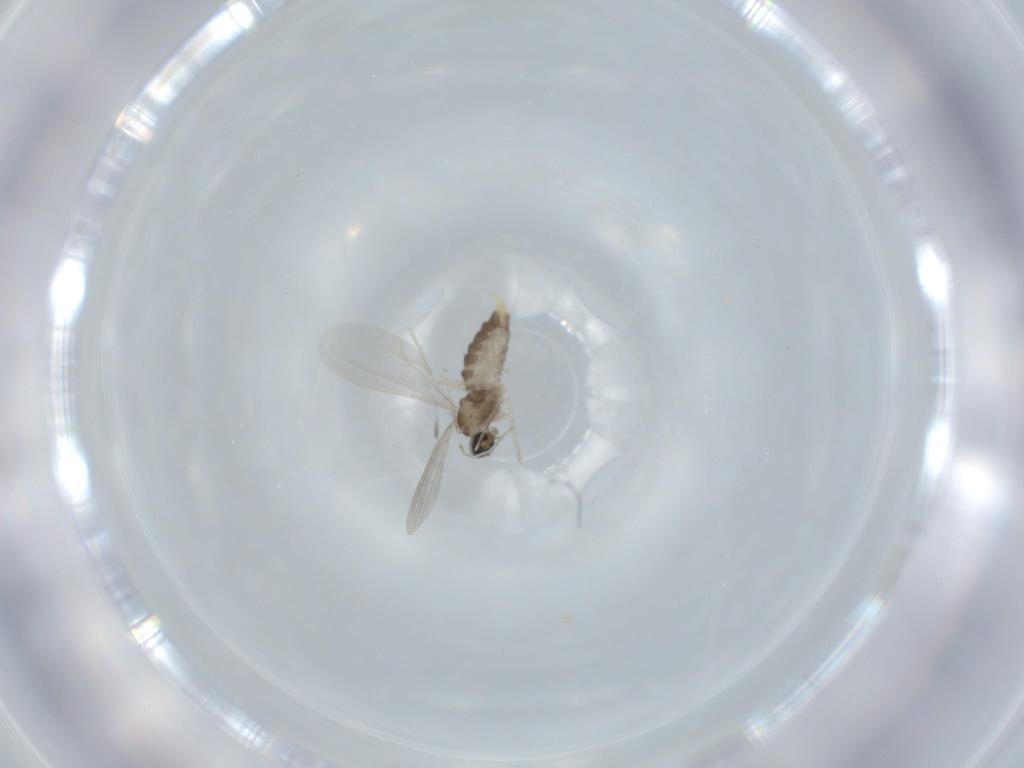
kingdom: Animalia
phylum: Arthropoda
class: Insecta
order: Diptera
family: Cecidomyiidae
